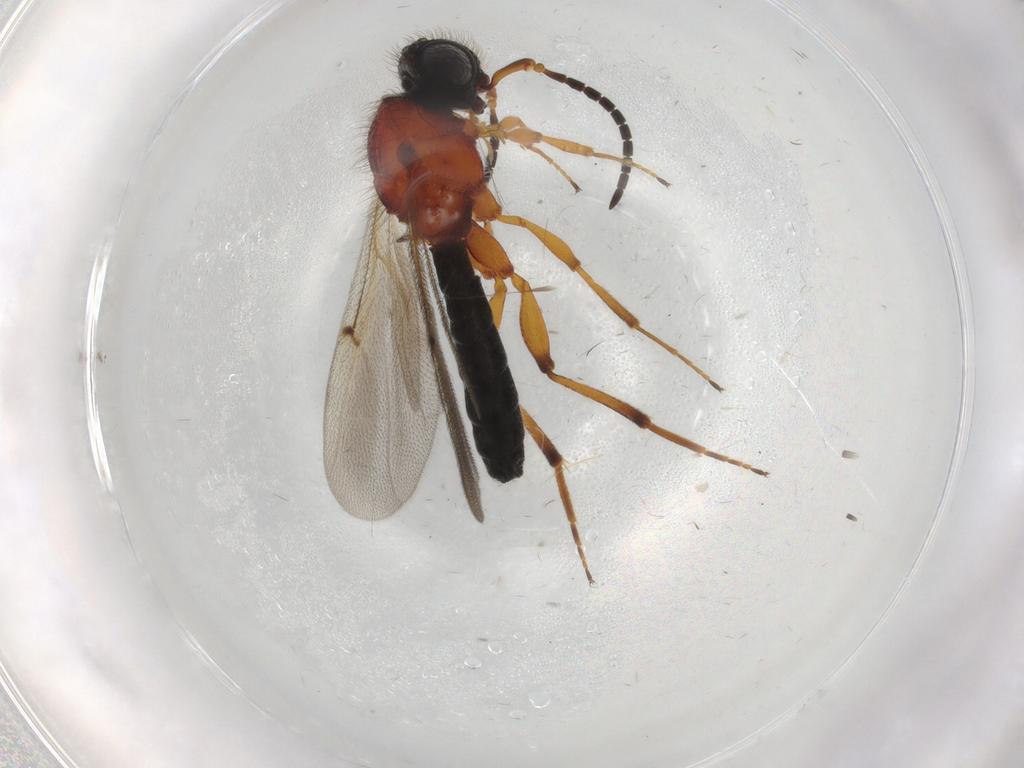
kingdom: Animalia
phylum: Arthropoda
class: Insecta
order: Hymenoptera
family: Scelionidae
